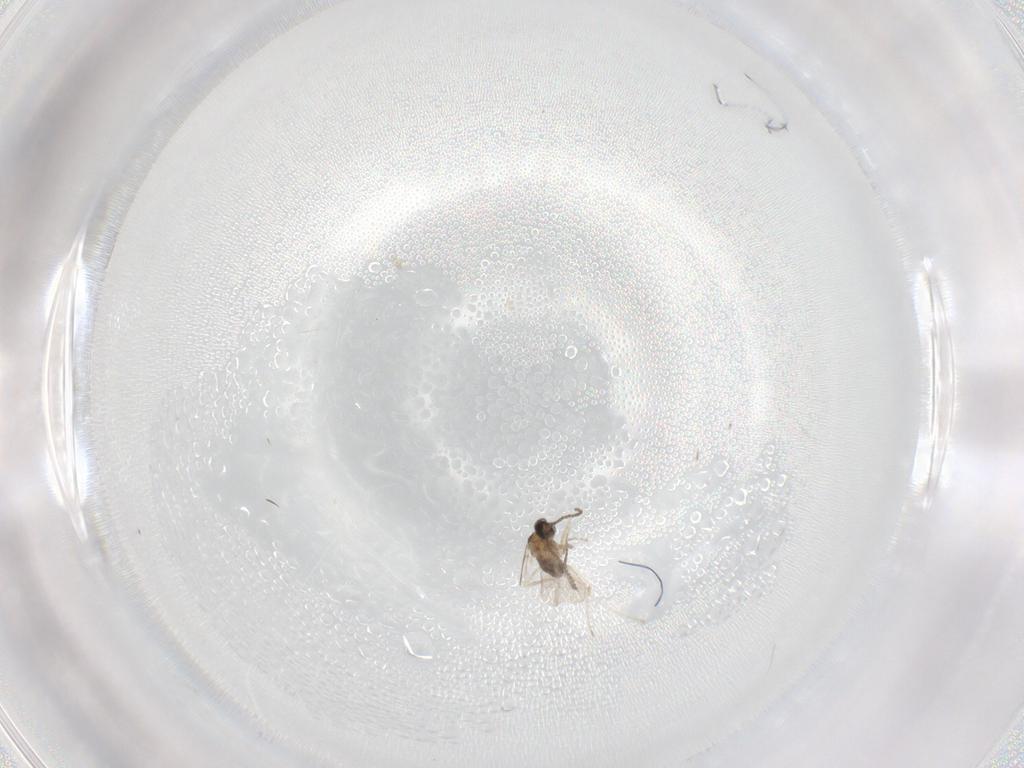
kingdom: Animalia
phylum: Arthropoda
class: Insecta
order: Diptera
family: Cecidomyiidae
